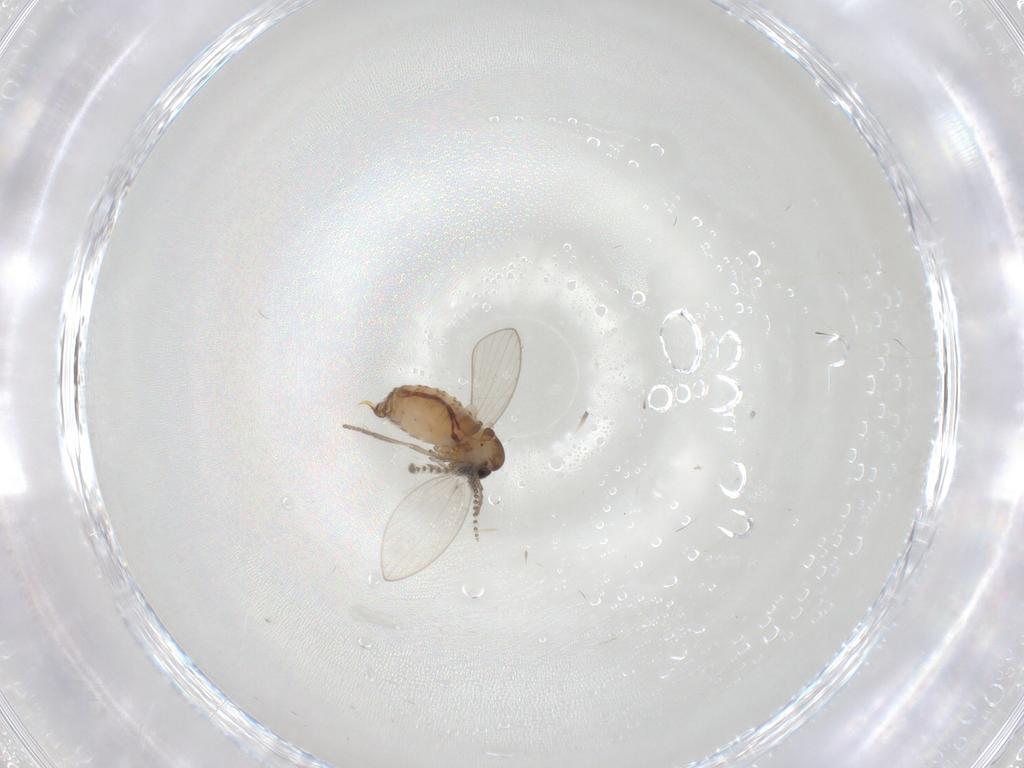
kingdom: Animalia
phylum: Arthropoda
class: Insecta
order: Diptera
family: Psychodidae
